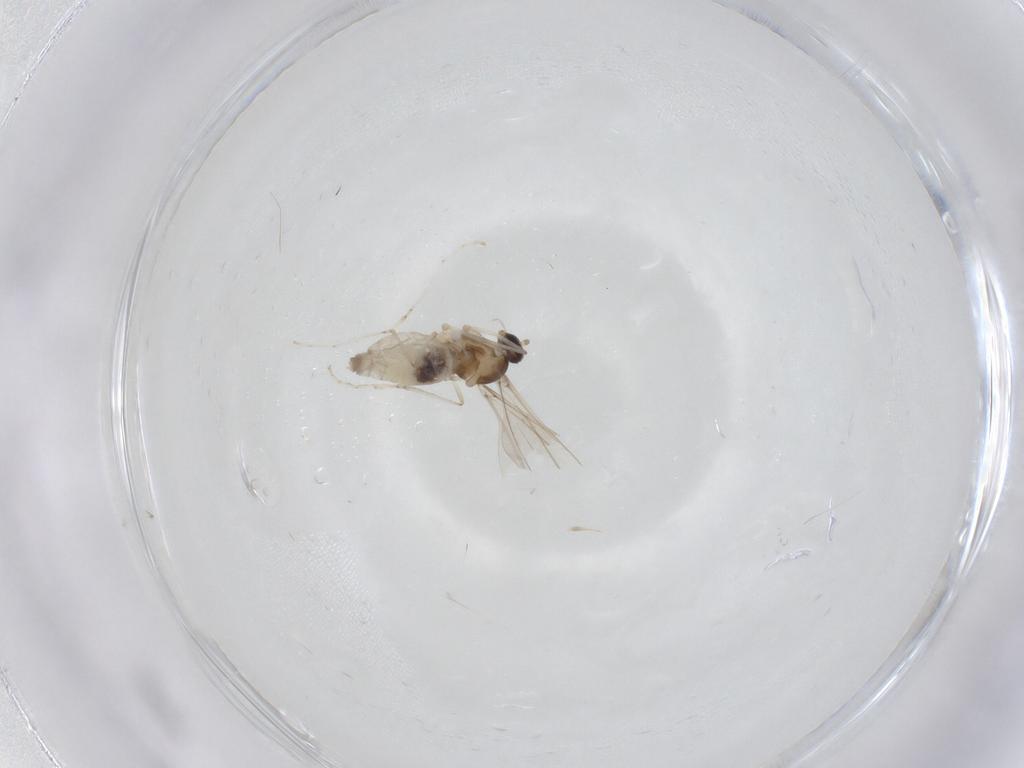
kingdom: Animalia
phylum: Arthropoda
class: Insecta
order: Diptera
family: Cecidomyiidae
